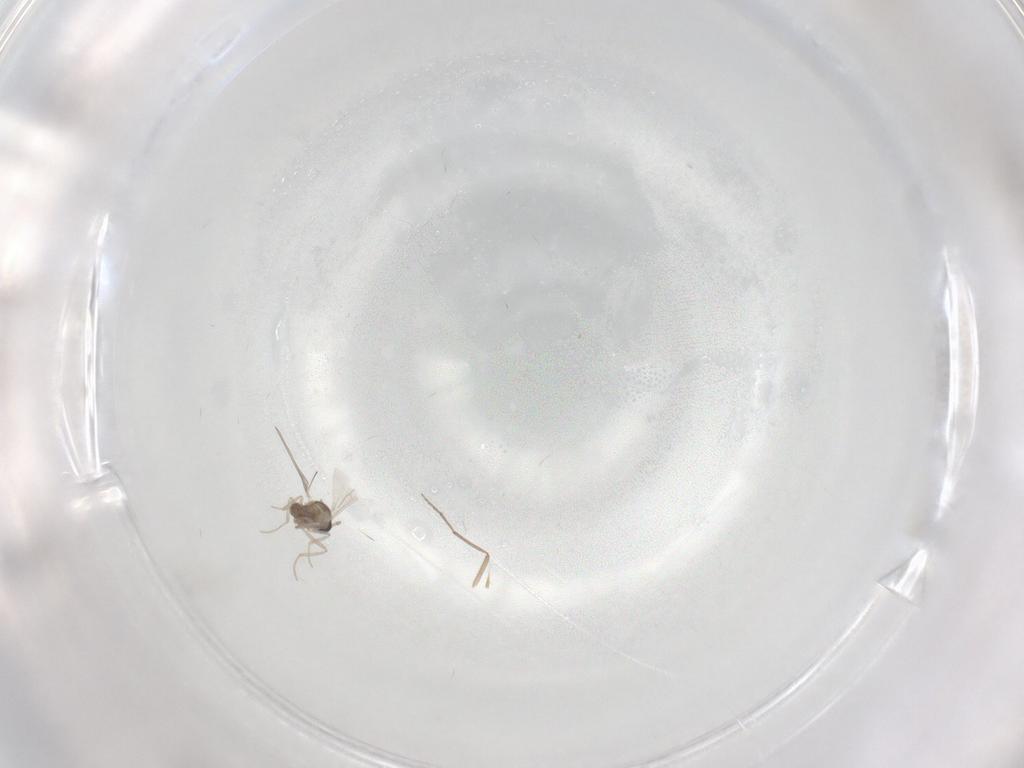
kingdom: Animalia
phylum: Arthropoda
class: Insecta
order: Diptera
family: Cecidomyiidae
